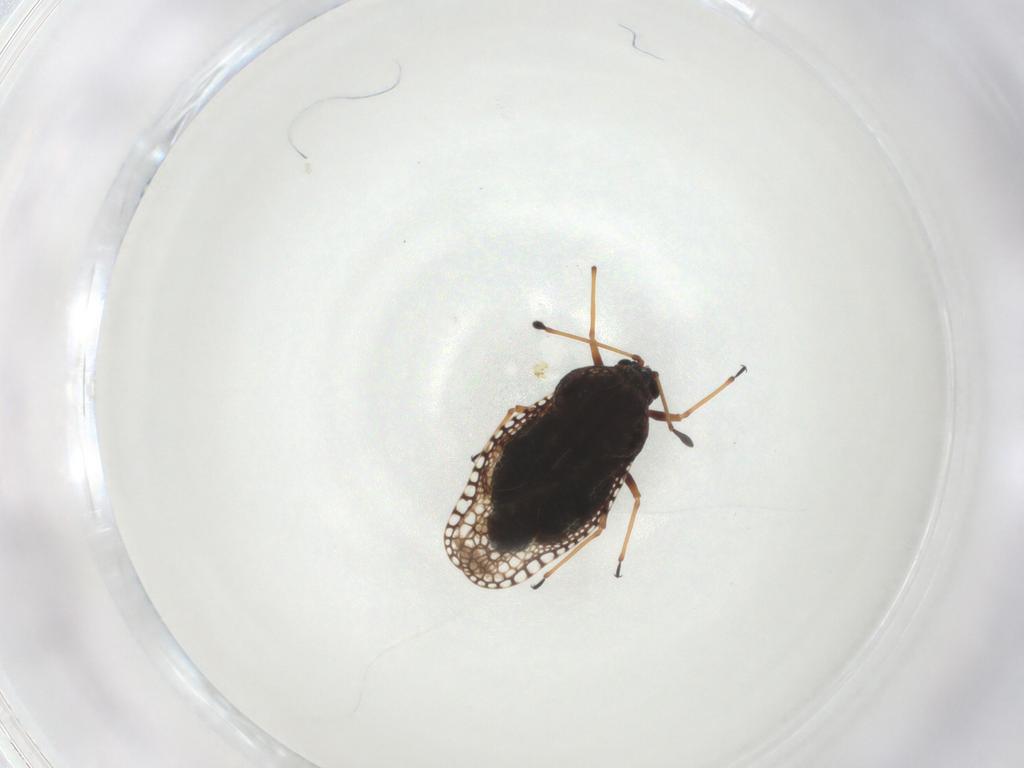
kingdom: Animalia
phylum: Arthropoda
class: Insecta
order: Hemiptera
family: Tingidae
